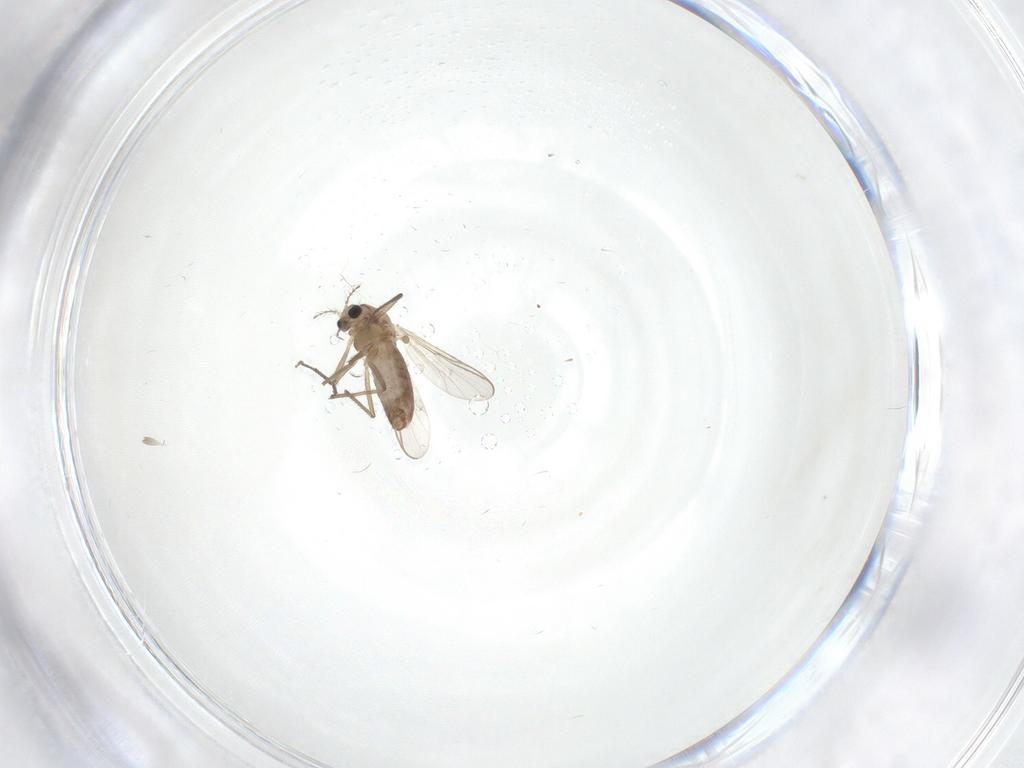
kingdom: Animalia
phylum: Arthropoda
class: Insecta
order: Diptera
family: Chironomidae
